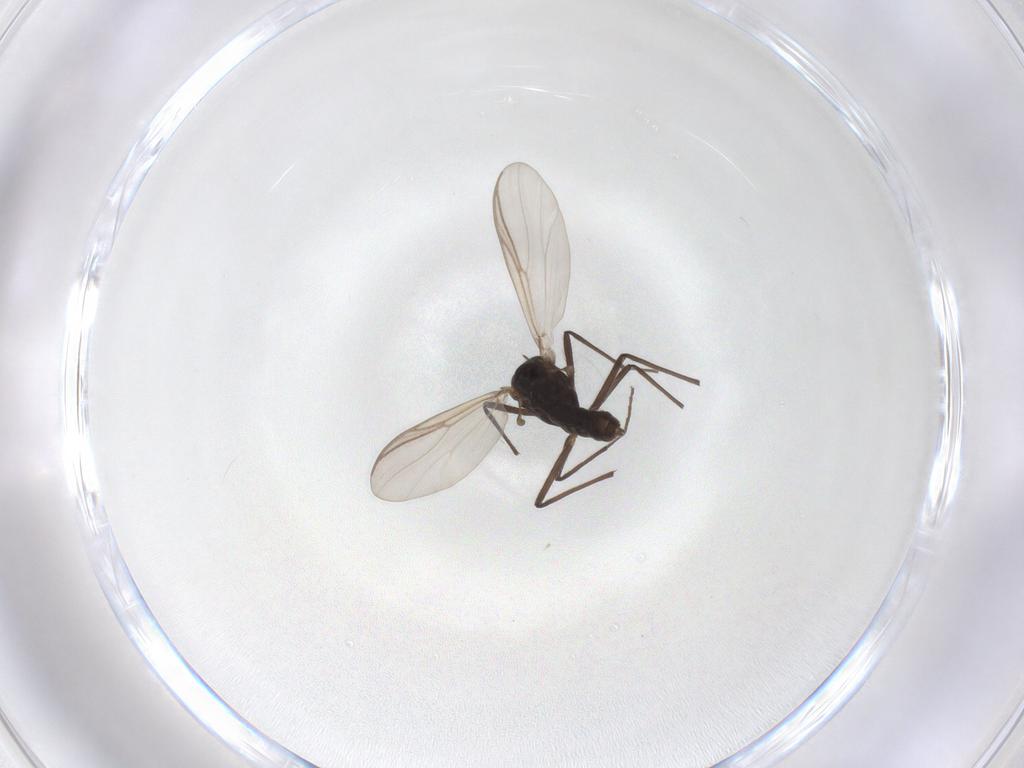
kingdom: Animalia
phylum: Arthropoda
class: Insecta
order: Diptera
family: Chironomidae
